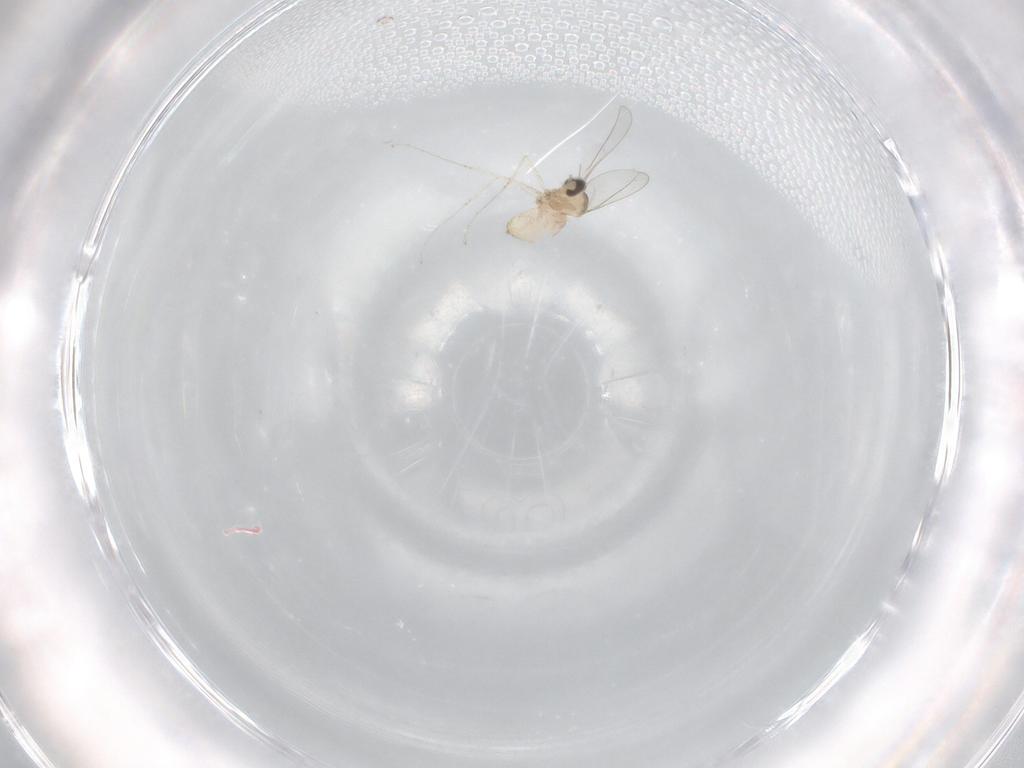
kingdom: Animalia
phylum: Arthropoda
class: Insecta
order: Diptera
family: Cecidomyiidae
